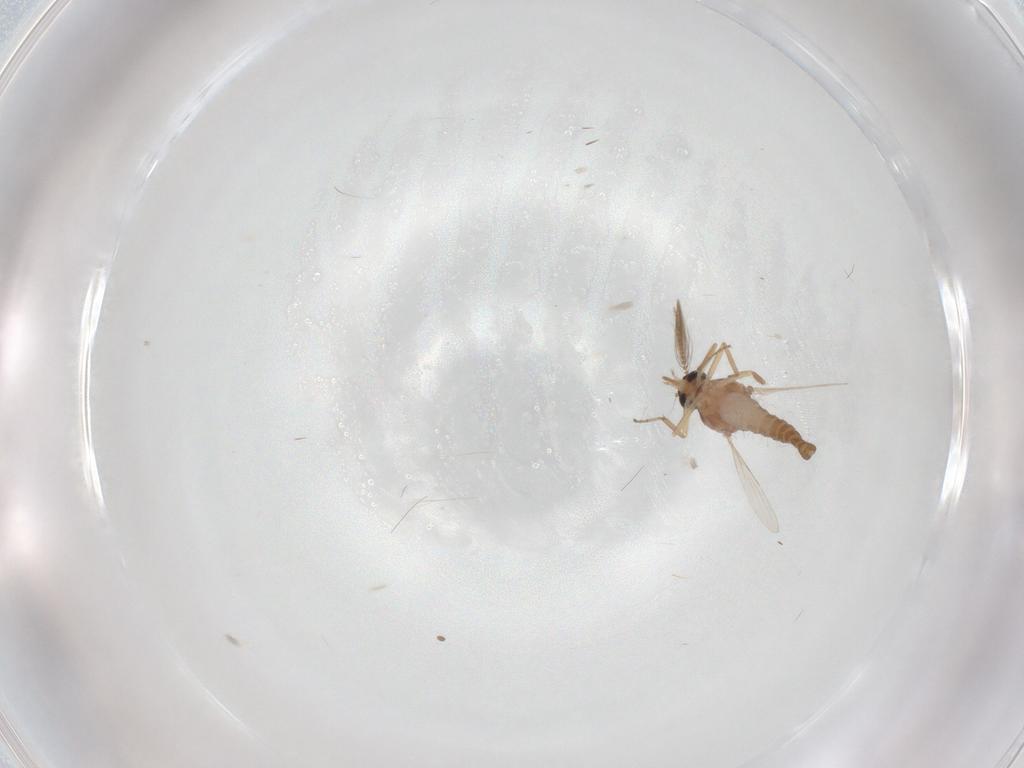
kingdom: Animalia
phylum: Arthropoda
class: Insecta
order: Diptera
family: Ceratopogonidae
